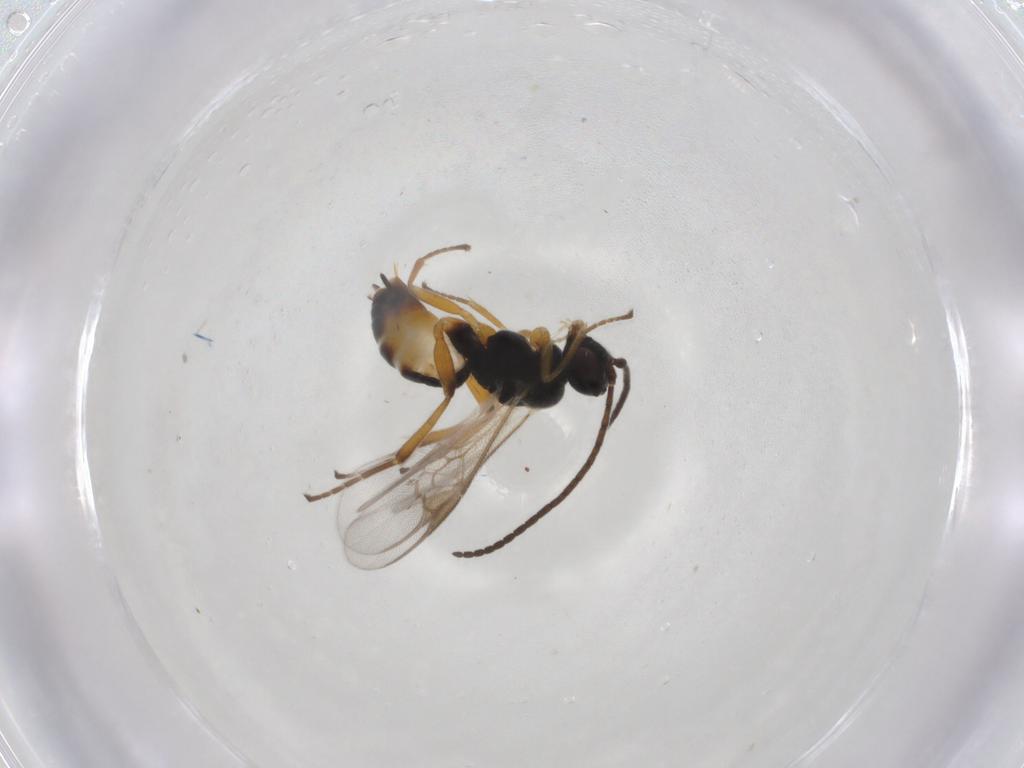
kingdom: Animalia
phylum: Arthropoda
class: Insecta
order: Hymenoptera
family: Braconidae
